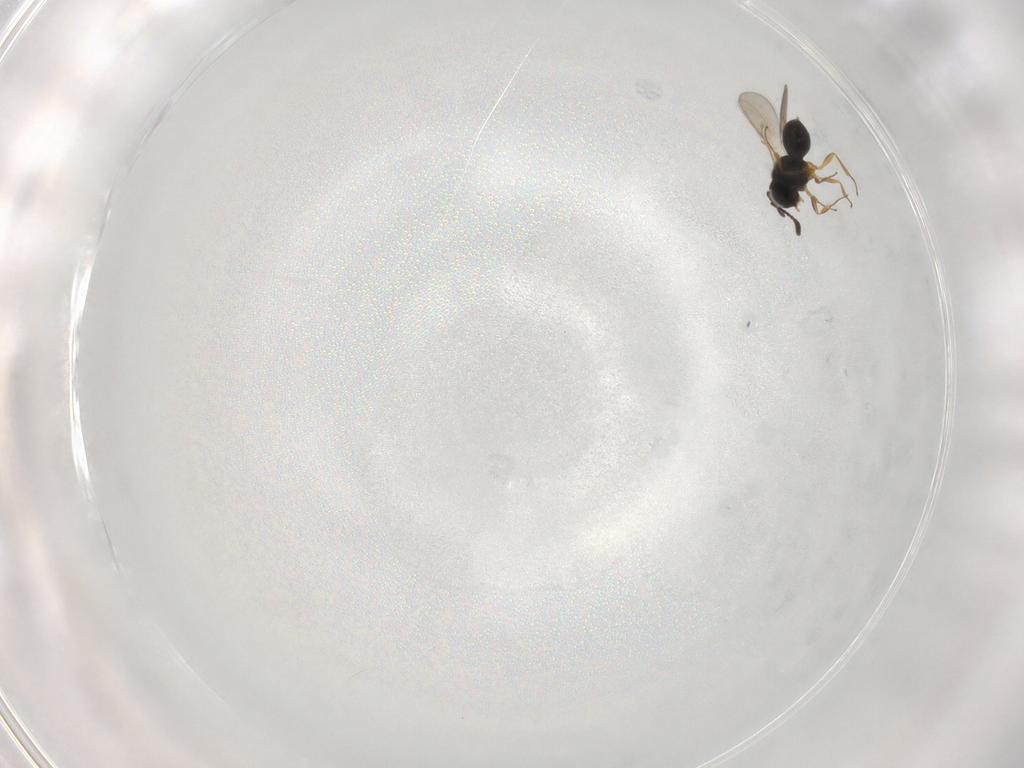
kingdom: Animalia
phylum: Arthropoda
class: Insecta
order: Hymenoptera
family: Scelionidae
